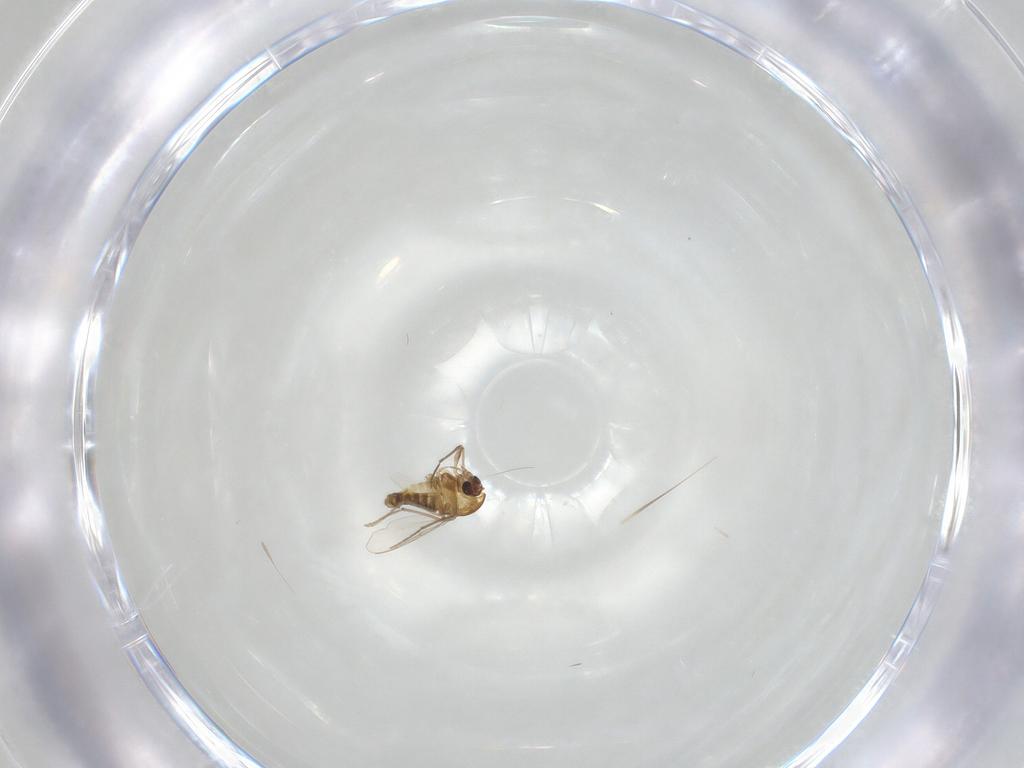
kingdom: Animalia
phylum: Arthropoda
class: Insecta
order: Diptera
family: Chironomidae
